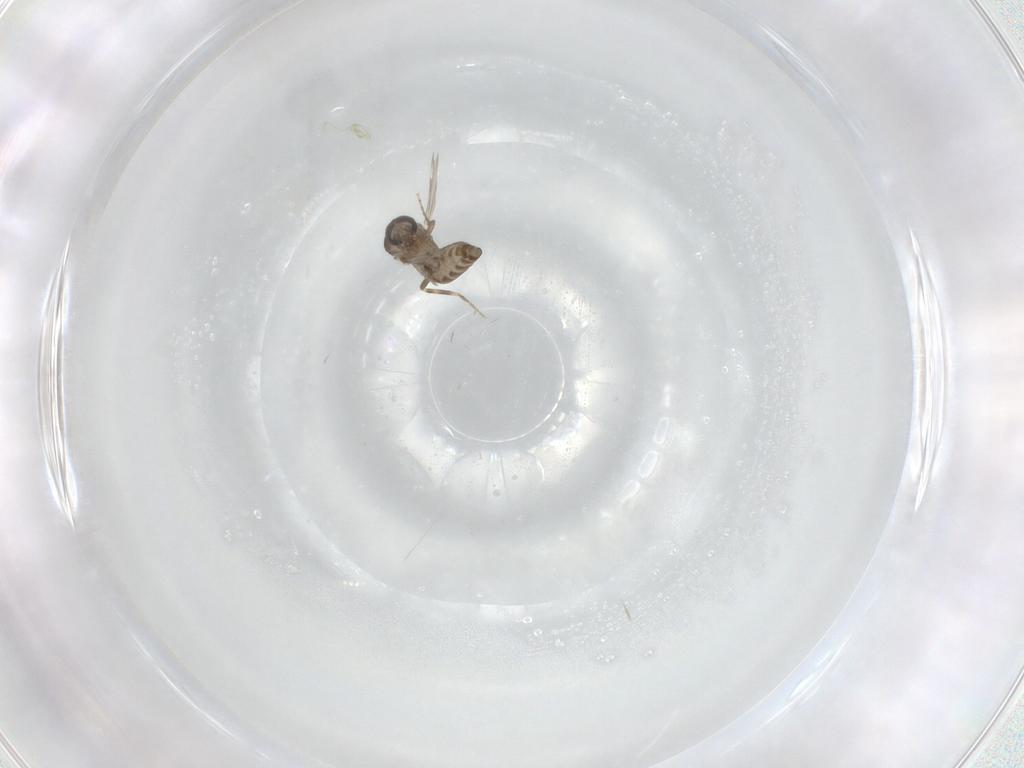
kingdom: Animalia
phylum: Arthropoda
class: Insecta
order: Diptera
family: Ceratopogonidae
